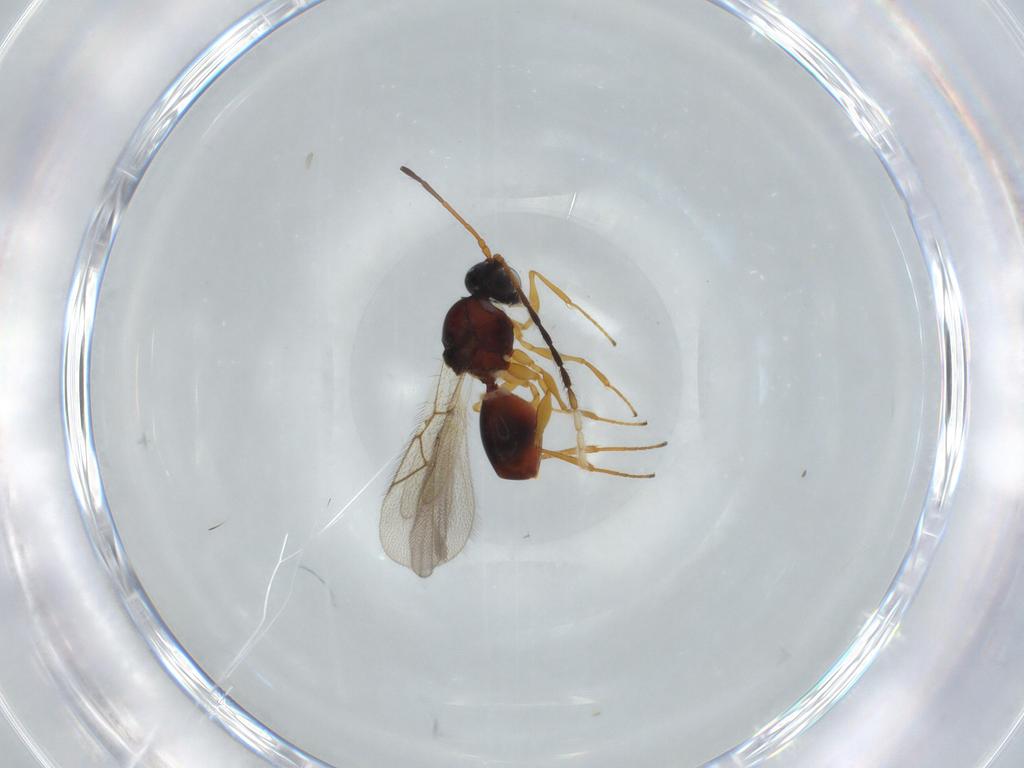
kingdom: Animalia
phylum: Arthropoda
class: Insecta
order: Hymenoptera
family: Figitidae
